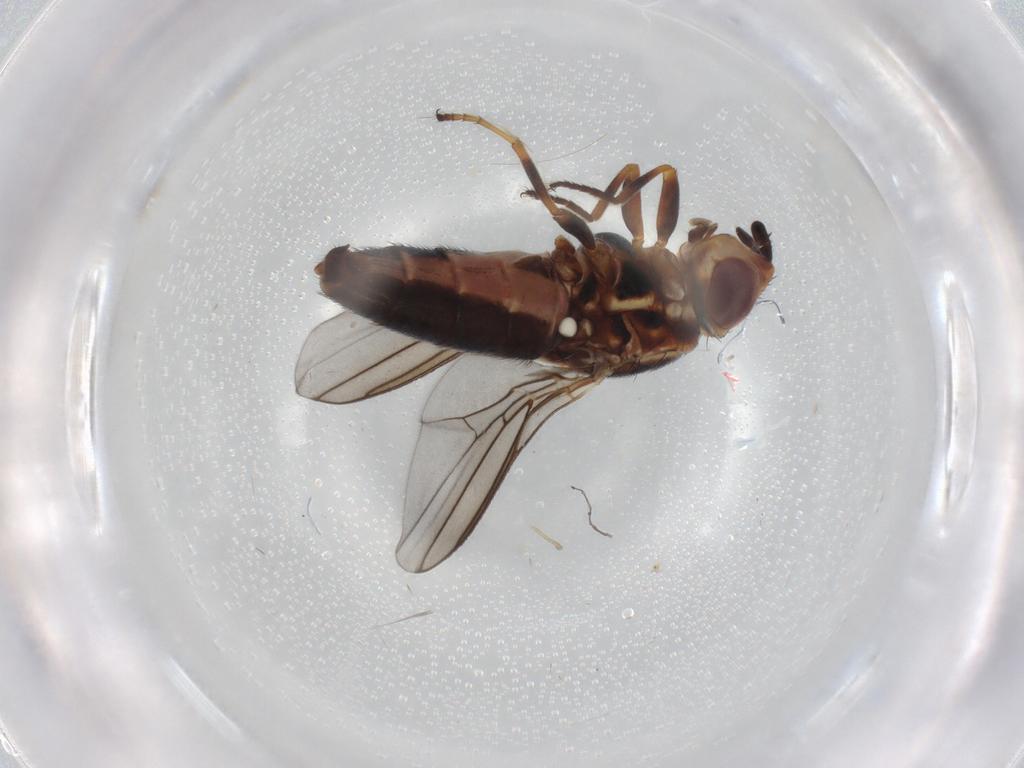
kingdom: Animalia
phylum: Arthropoda
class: Insecta
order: Diptera
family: Chloropidae
